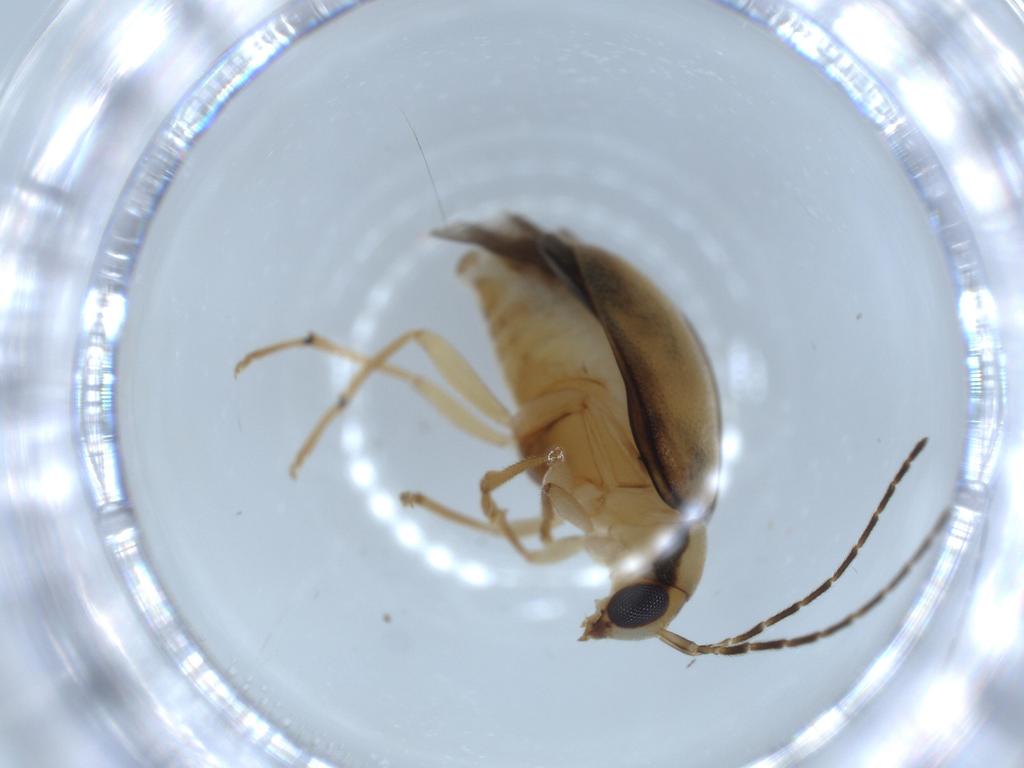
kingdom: Animalia
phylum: Arthropoda
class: Insecta
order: Coleoptera
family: Chrysomelidae
